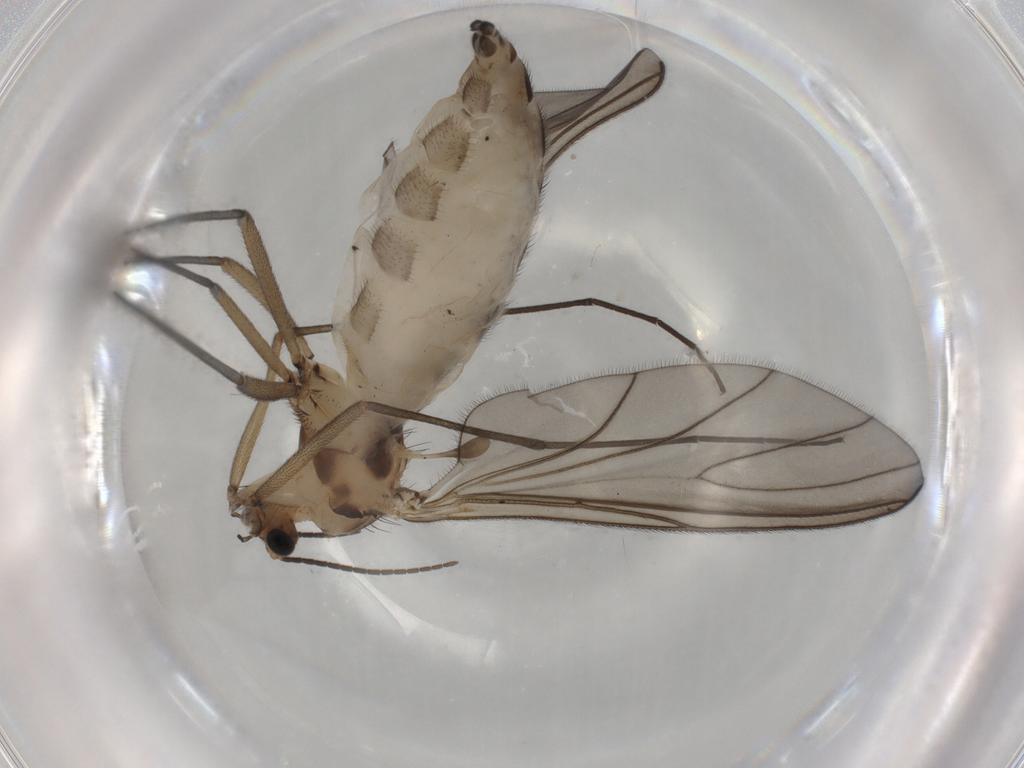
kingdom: Animalia
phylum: Arthropoda
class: Insecta
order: Diptera
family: Sciaridae
